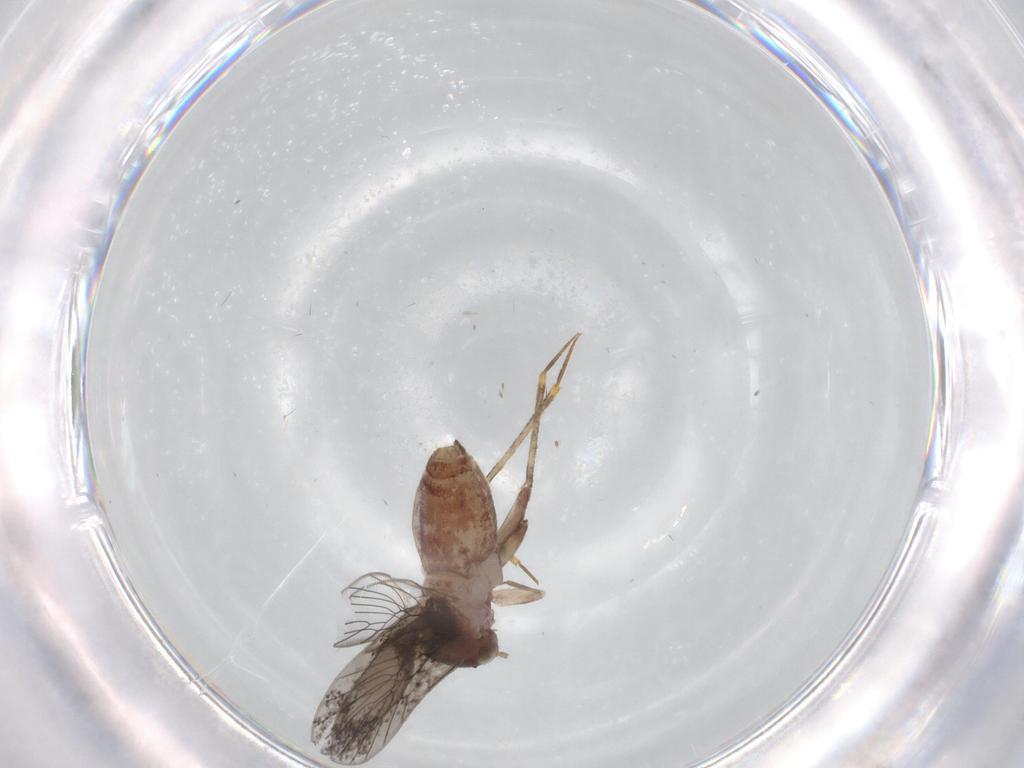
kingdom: Animalia
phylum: Arthropoda
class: Insecta
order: Psocodea
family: Lepidopsocidae
